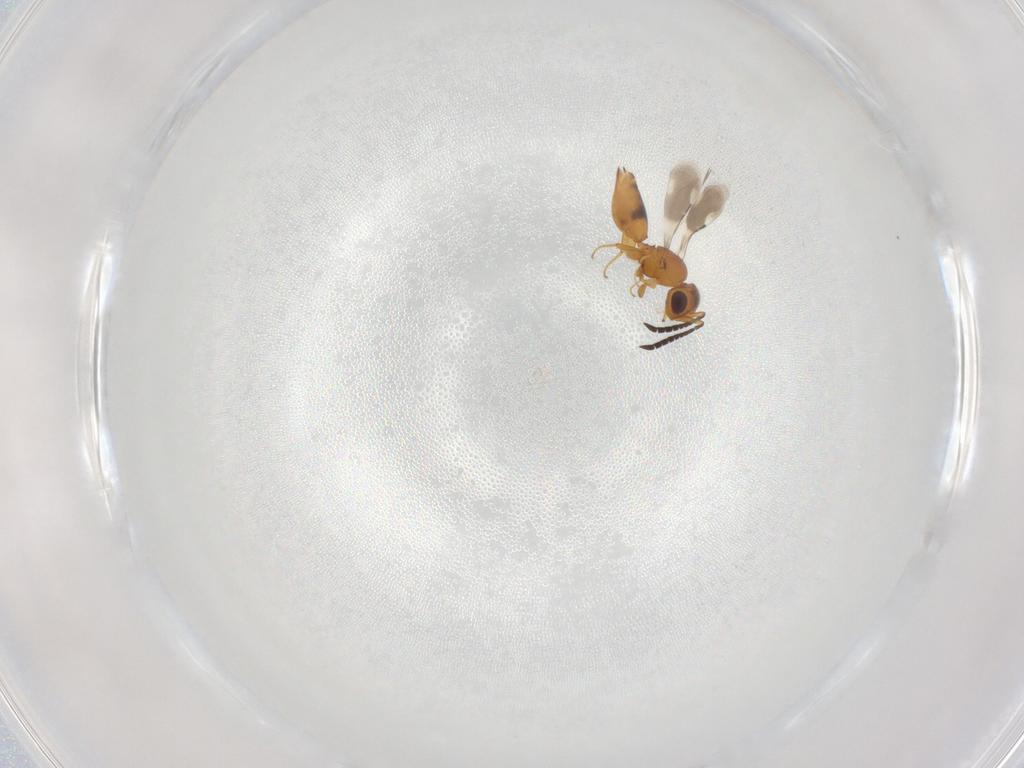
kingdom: Animalia
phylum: Arthropoda
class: Insecta
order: Hymenoptera
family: Ceraphronidae
